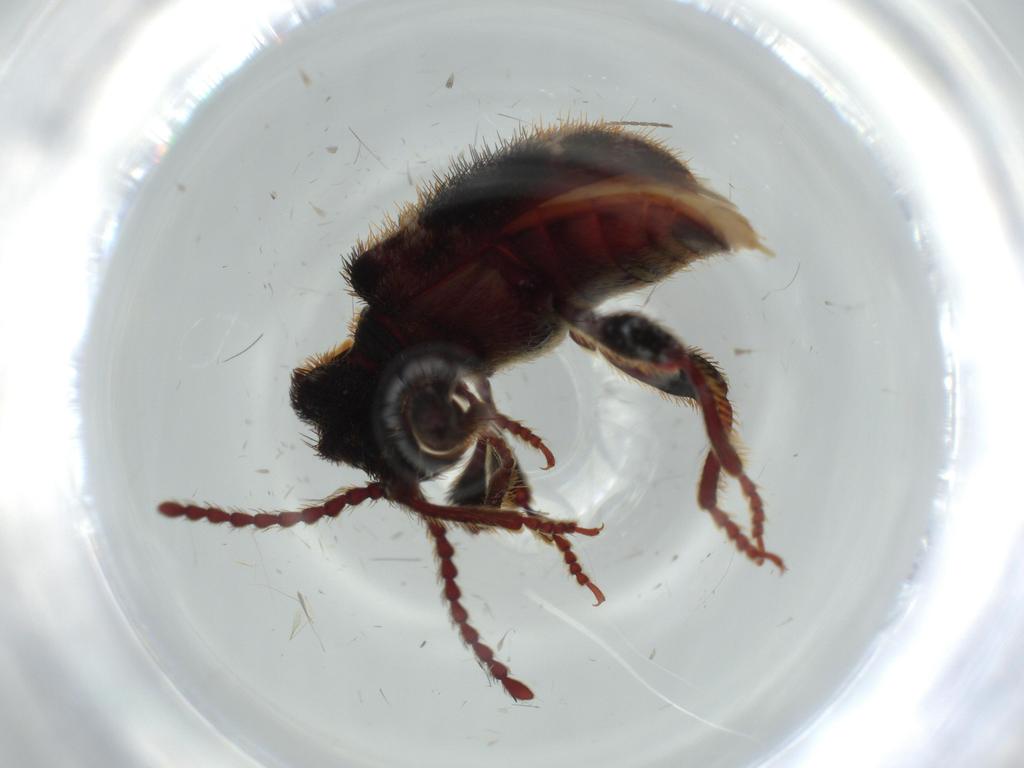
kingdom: Animalia
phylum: Arthropoda
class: Insecta
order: Coleoptera
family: Ptinidae
